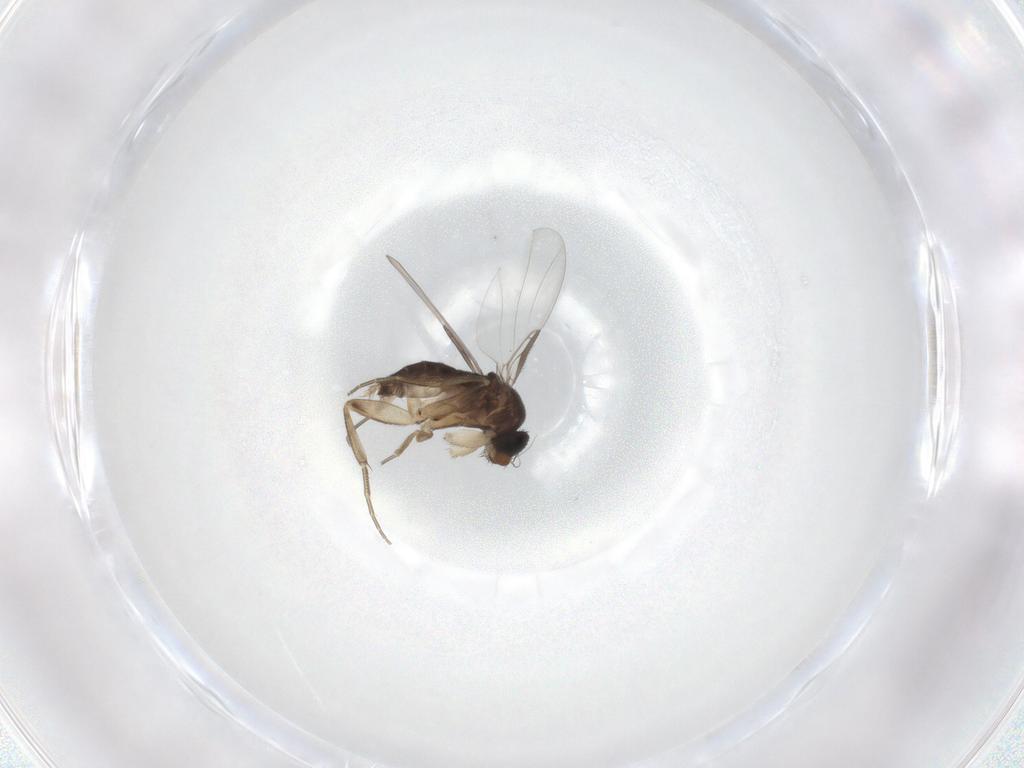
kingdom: Animalia
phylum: Arthropoda
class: Insecta
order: Diptera
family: Phoridae
